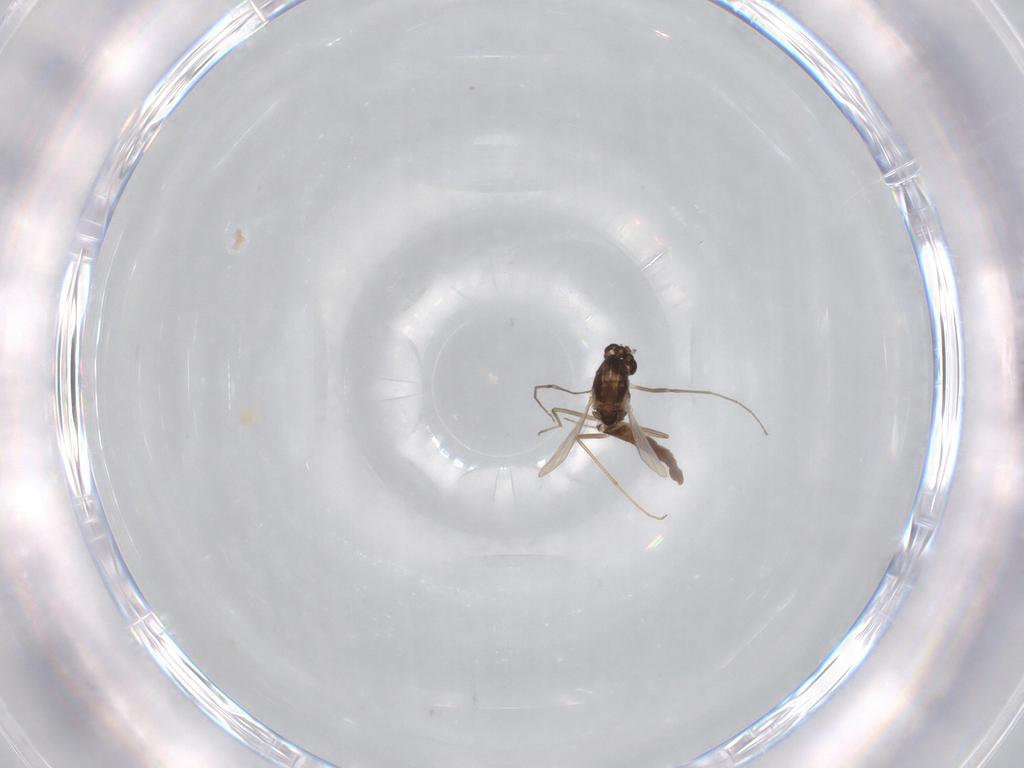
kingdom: Animalia
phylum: Arthropoda
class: Insecta
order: Diptera
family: Chironomidae
